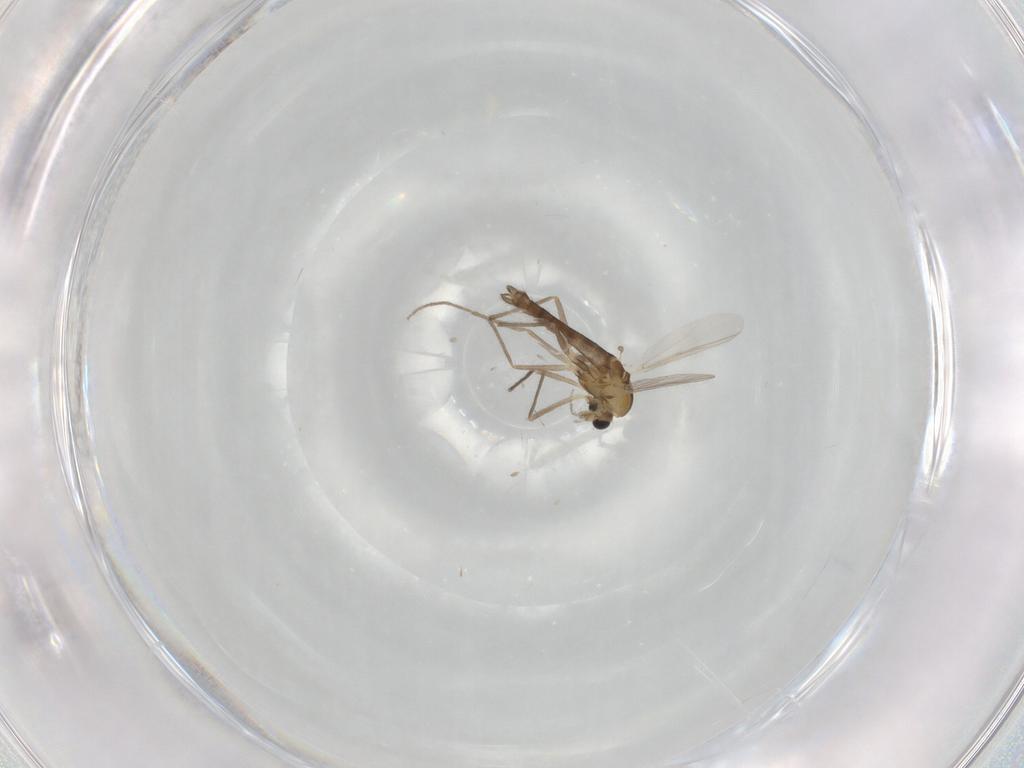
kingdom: Animalia
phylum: Arthropoda
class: Insecta
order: Diptera
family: Chironomidae
